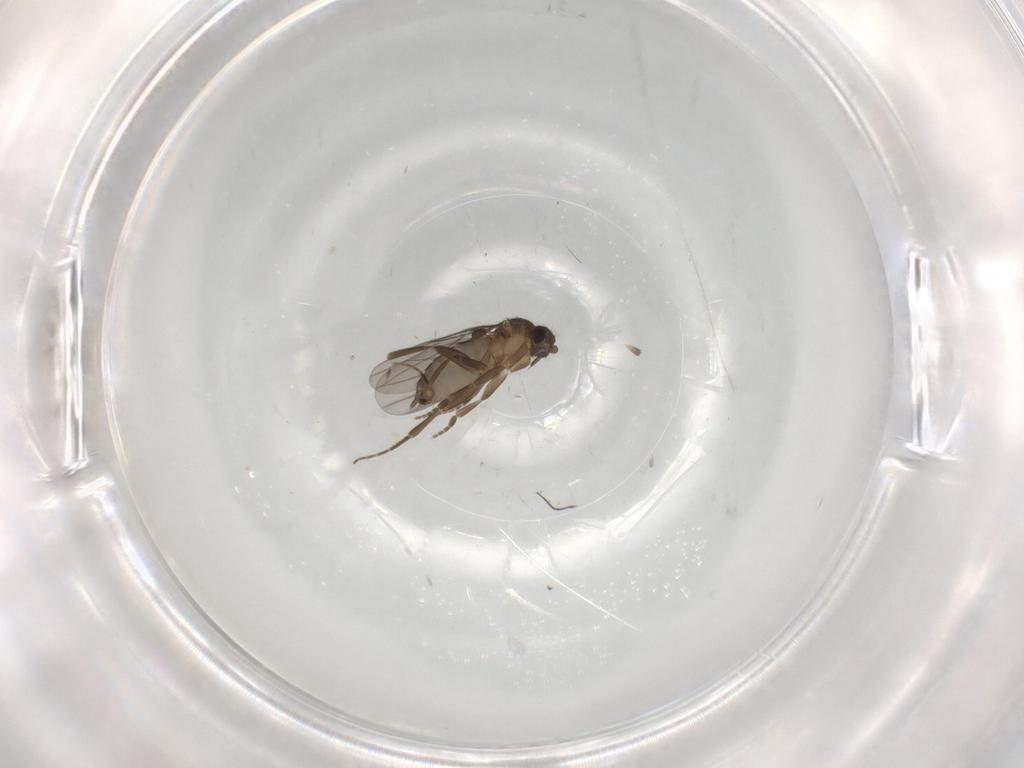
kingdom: Animalia
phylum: Arthropoda
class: Insecta
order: Diptera
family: Phoridae
